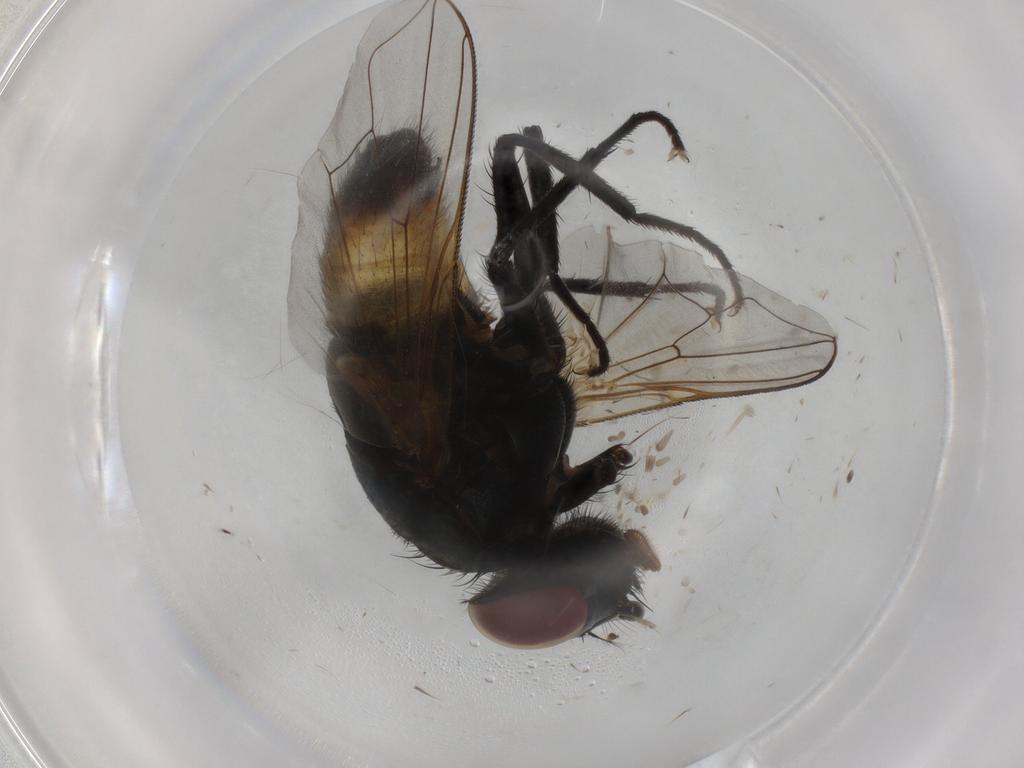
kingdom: Animalia
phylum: Arthropoda
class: Insecta
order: Diptera
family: Muscidae
